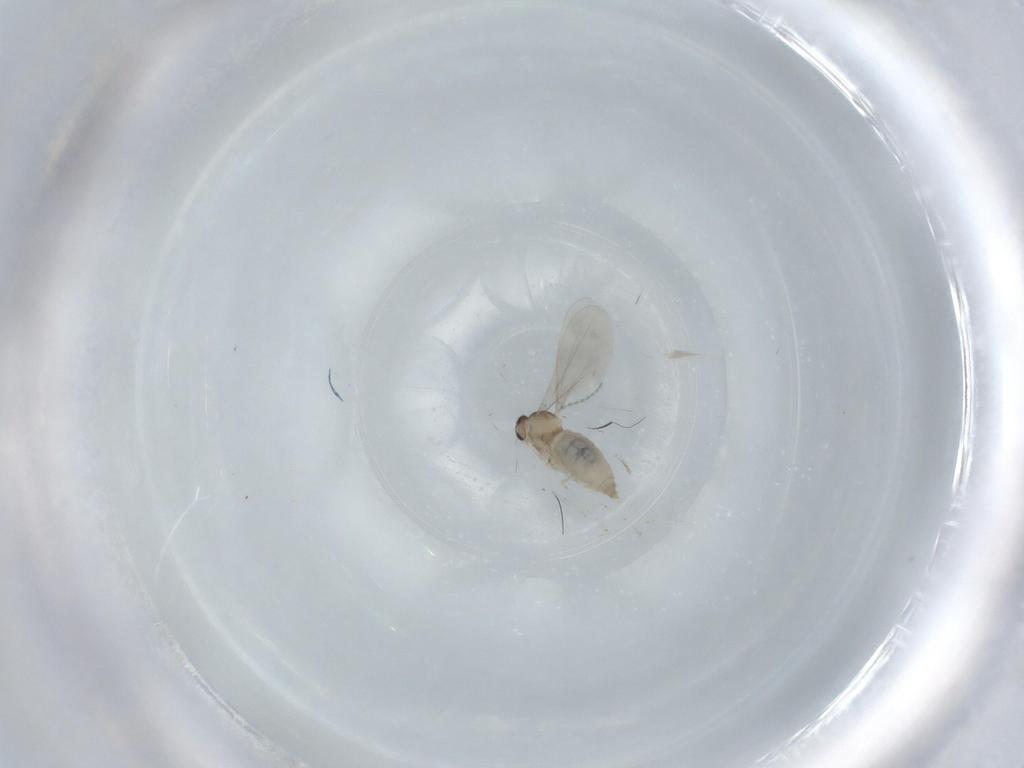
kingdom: Animalia
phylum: Arthropoda
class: Insecta
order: Diptera
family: Cecidomyiidae
